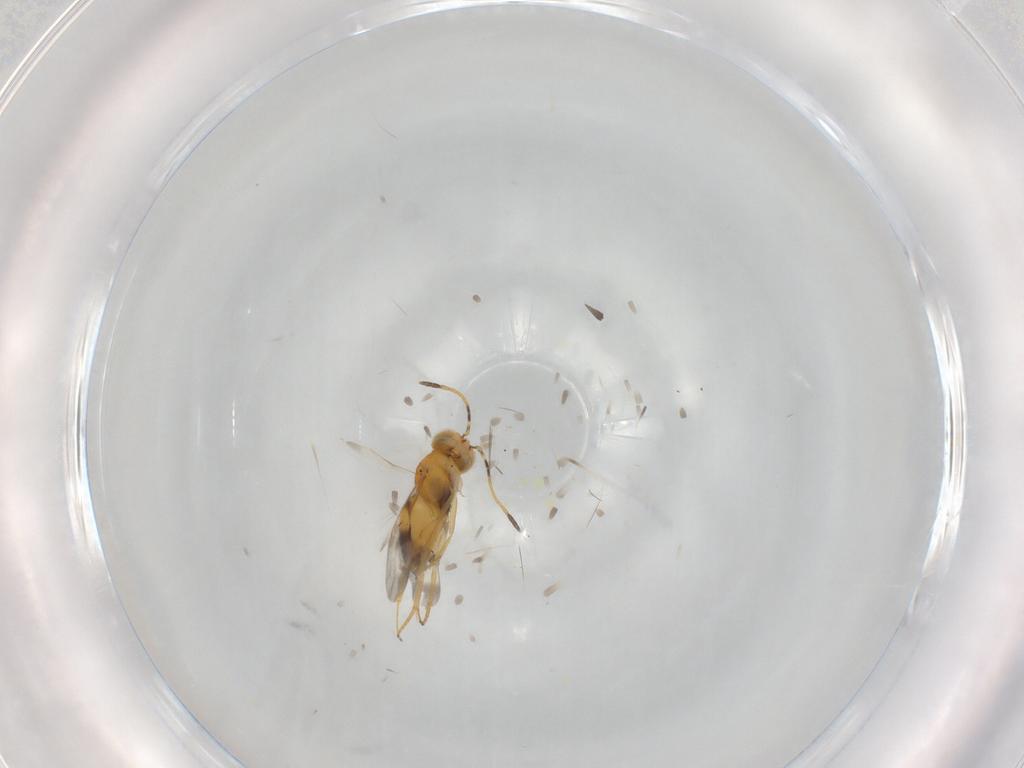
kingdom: Animalia
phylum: Arthropoda
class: Insecta
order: Hymenoptera
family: Encyrtidae
